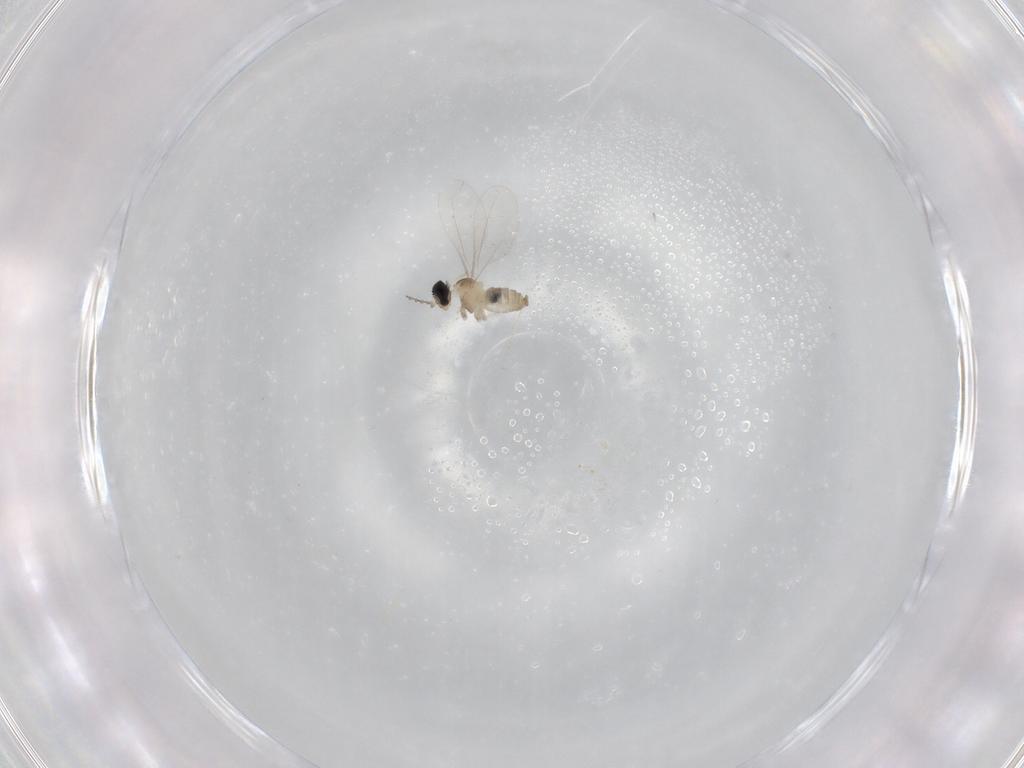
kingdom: Animalia
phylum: Arthropoda
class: Insecta
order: Diptera
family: Cecidomyiidae
